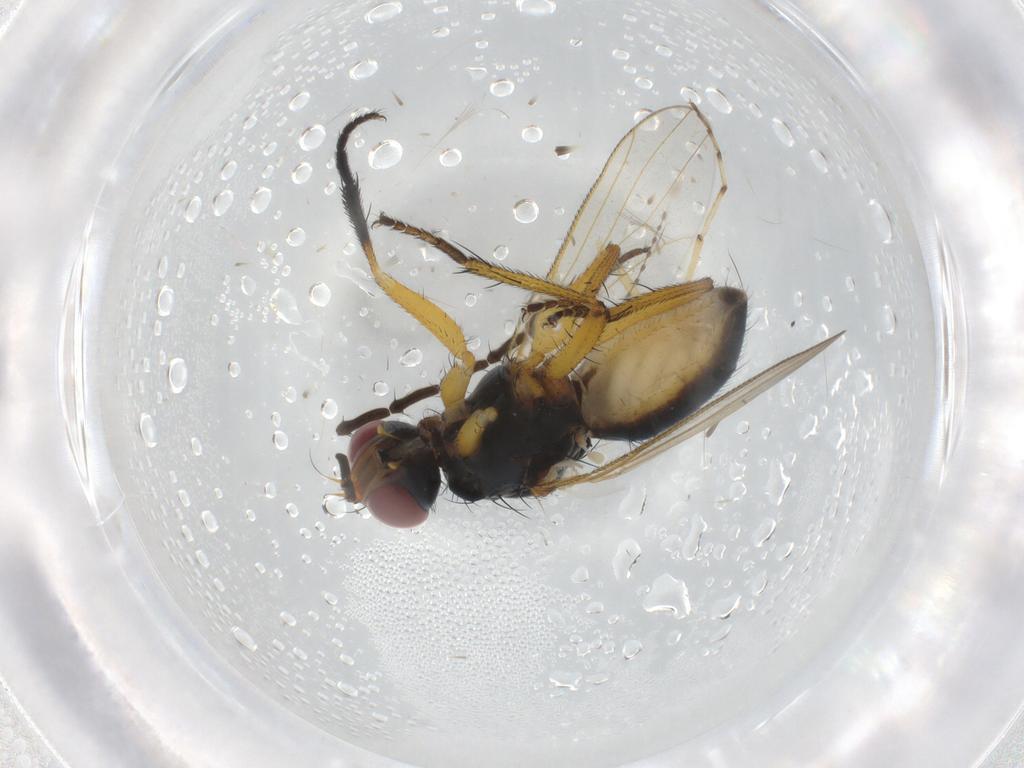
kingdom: Animalia
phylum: Arthropoda
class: Insecta
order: Diptera
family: Tipulidae
